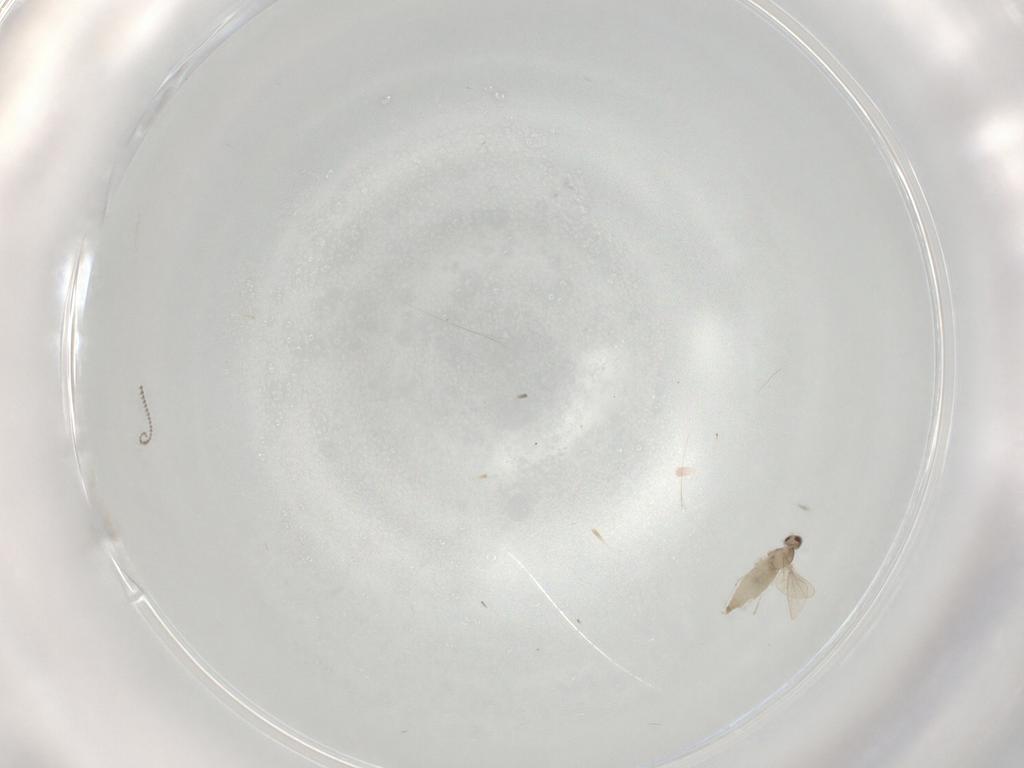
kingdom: Animalia
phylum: Arthropoda
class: Insecta
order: Diptera
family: Cecidomyiidae
